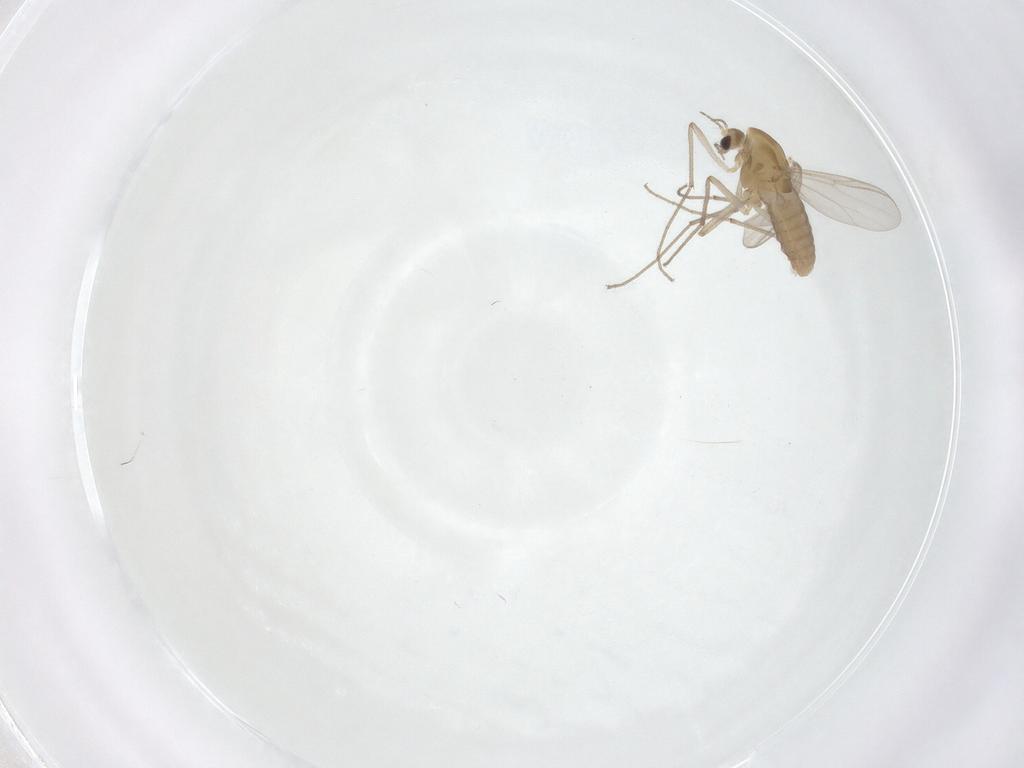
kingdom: Animalia
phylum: Arthropoda
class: Insecta
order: Diptera
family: Chironomidae
